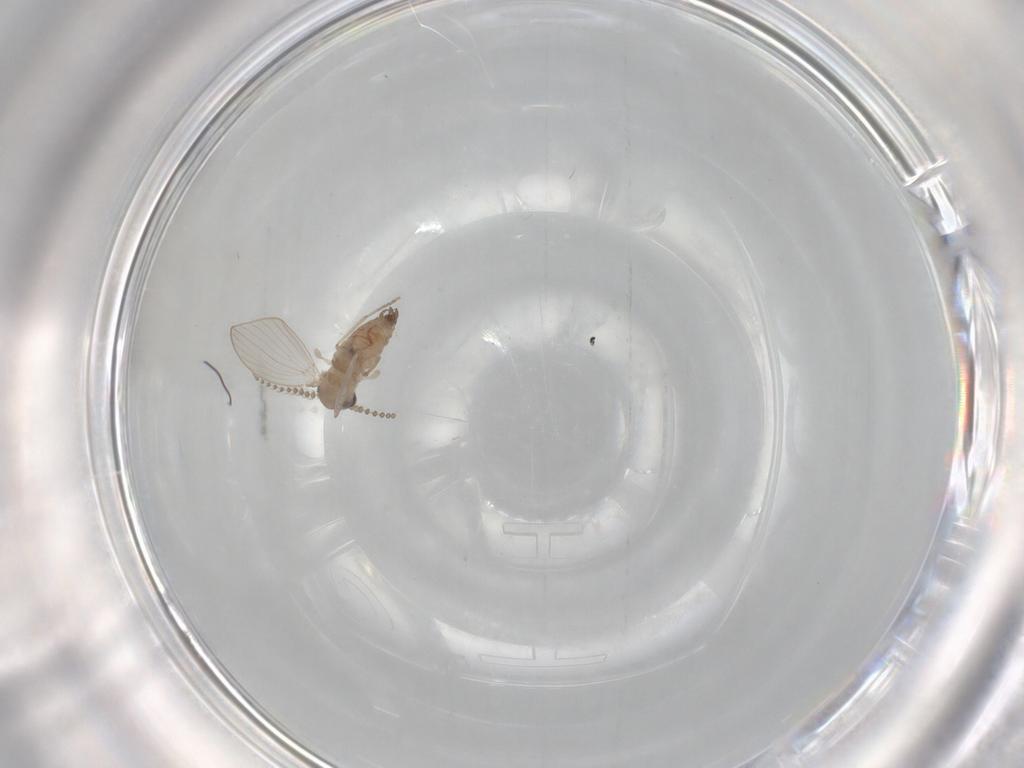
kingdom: Animalia
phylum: Arthropoda
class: Insecta
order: Diptera
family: Psychodidae
